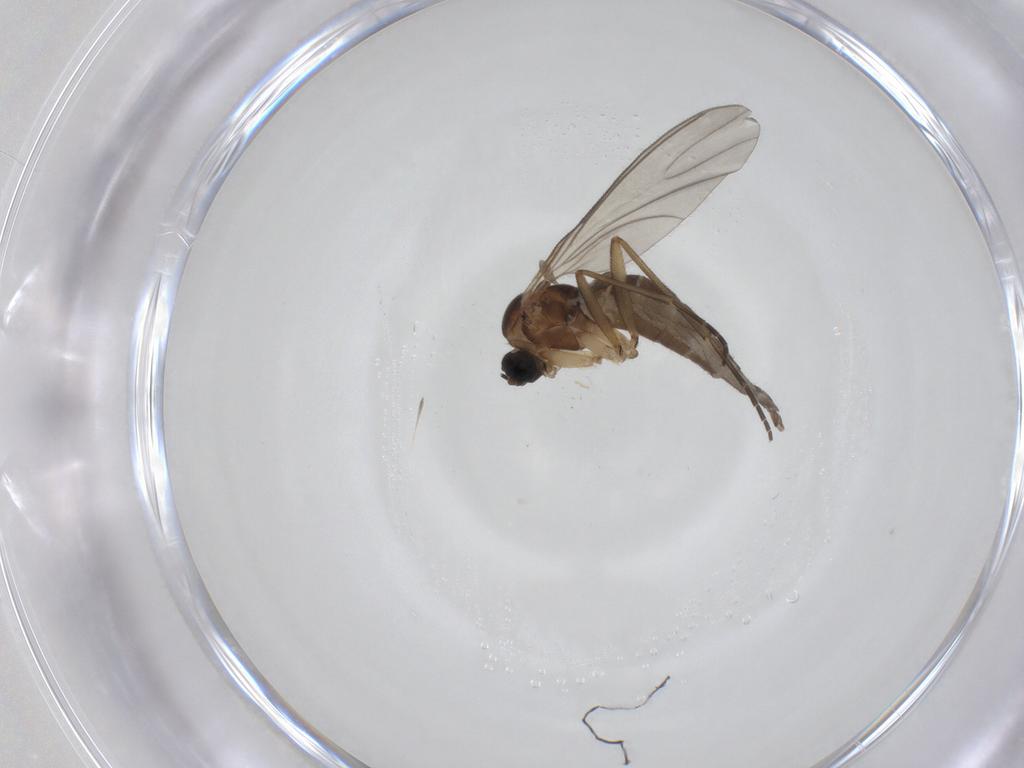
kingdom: Animalia
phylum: Arthropoda
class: Insecta
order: Diptera
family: Sciaridae
